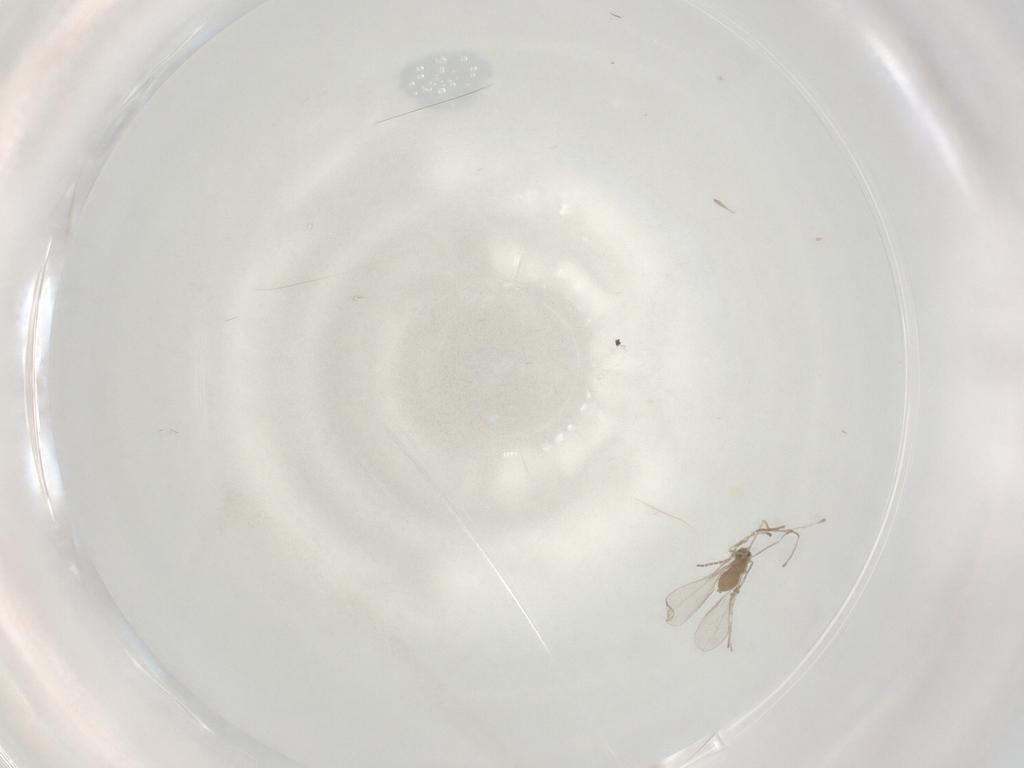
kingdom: Animalia
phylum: Arthropoda
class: Insecta
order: Diptera
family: Sphaeroceridae
